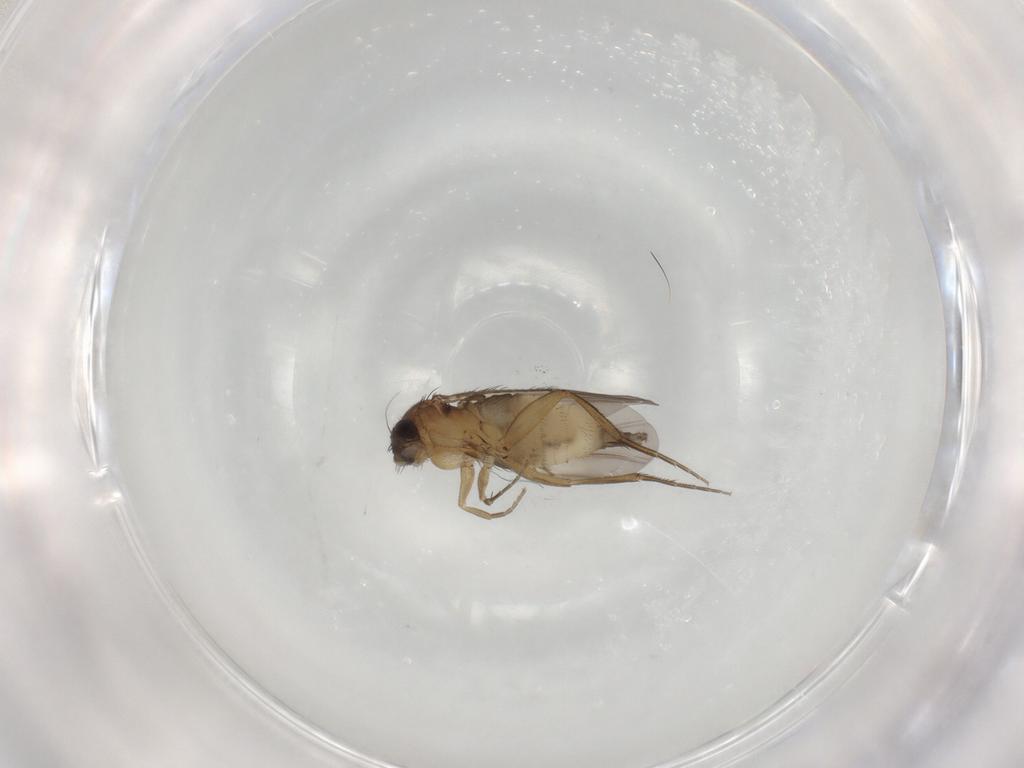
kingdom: Animalia
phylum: Arthropoda
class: Insecta
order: Diptera
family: Phoridae
